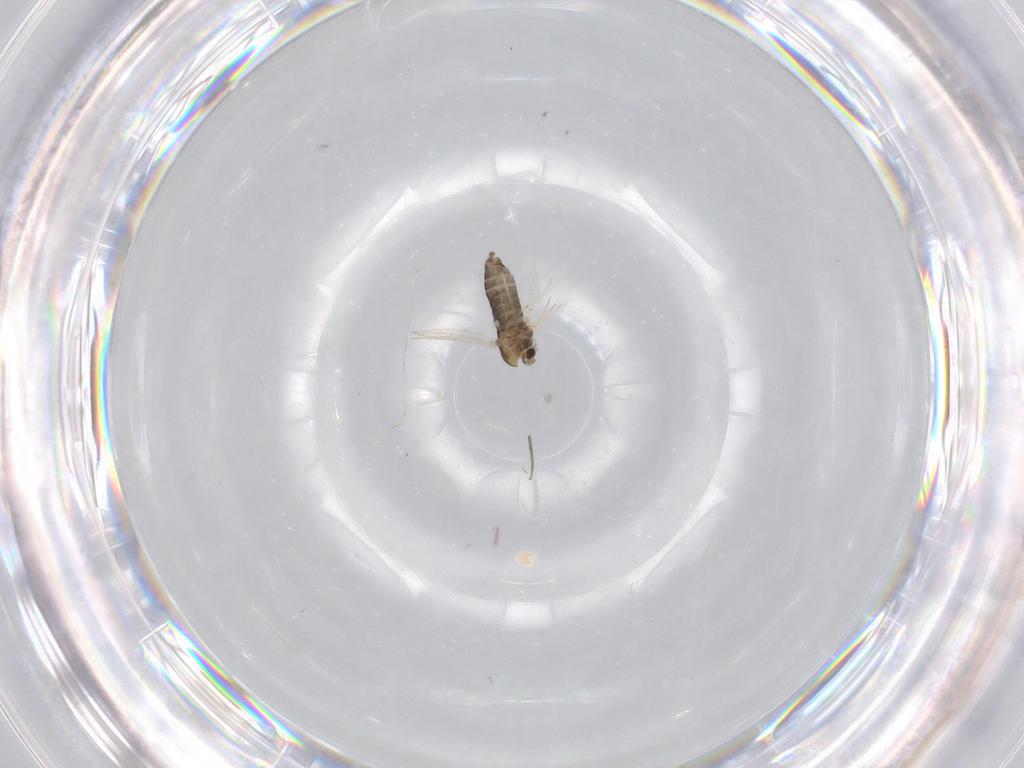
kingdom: Animalia
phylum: Arthropoda
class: Insecta
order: Diptera
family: Chironomidae
